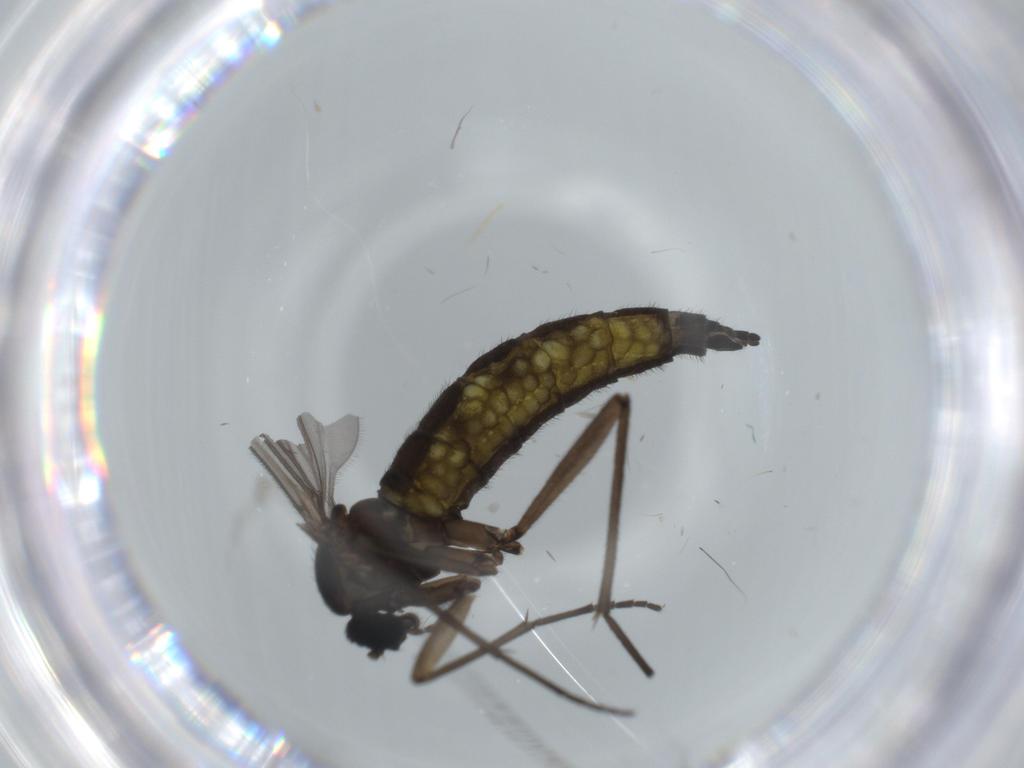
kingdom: Animalia
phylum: Arthropoda
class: Insecta
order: Diptera
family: Sciaridae
